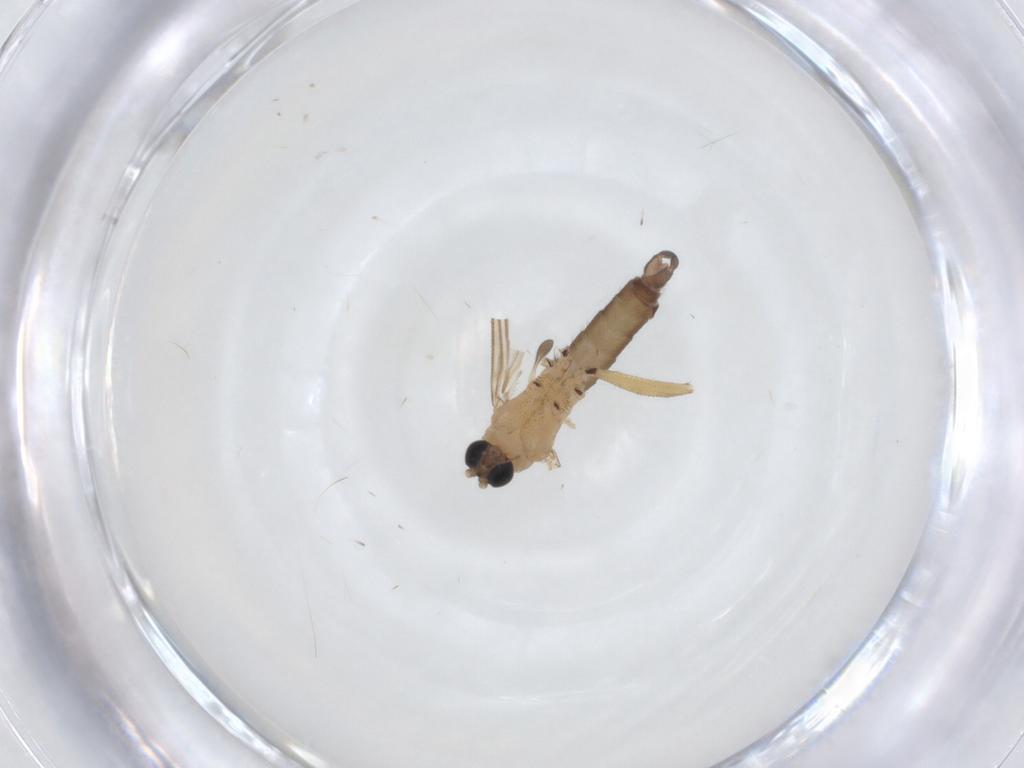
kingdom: Animalia
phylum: Arthropoda
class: Insecta
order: Diptera
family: Sciaridae
